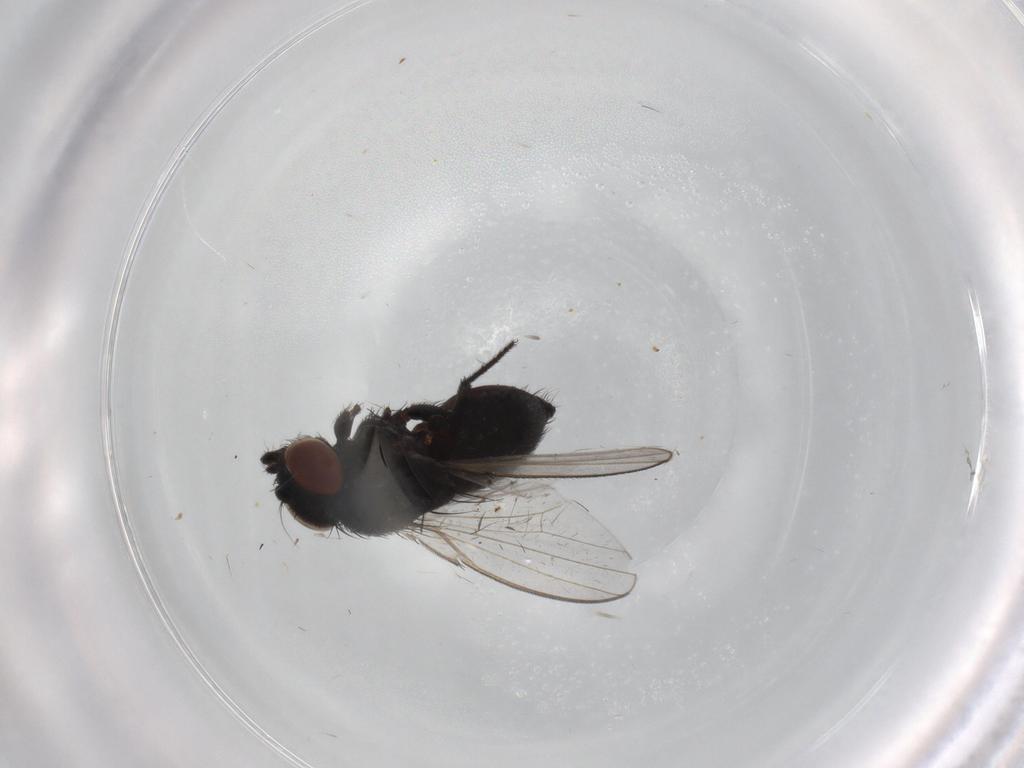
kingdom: Animalia
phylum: Arthropoda
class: Insecta
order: Diptera
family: Milichiidae
